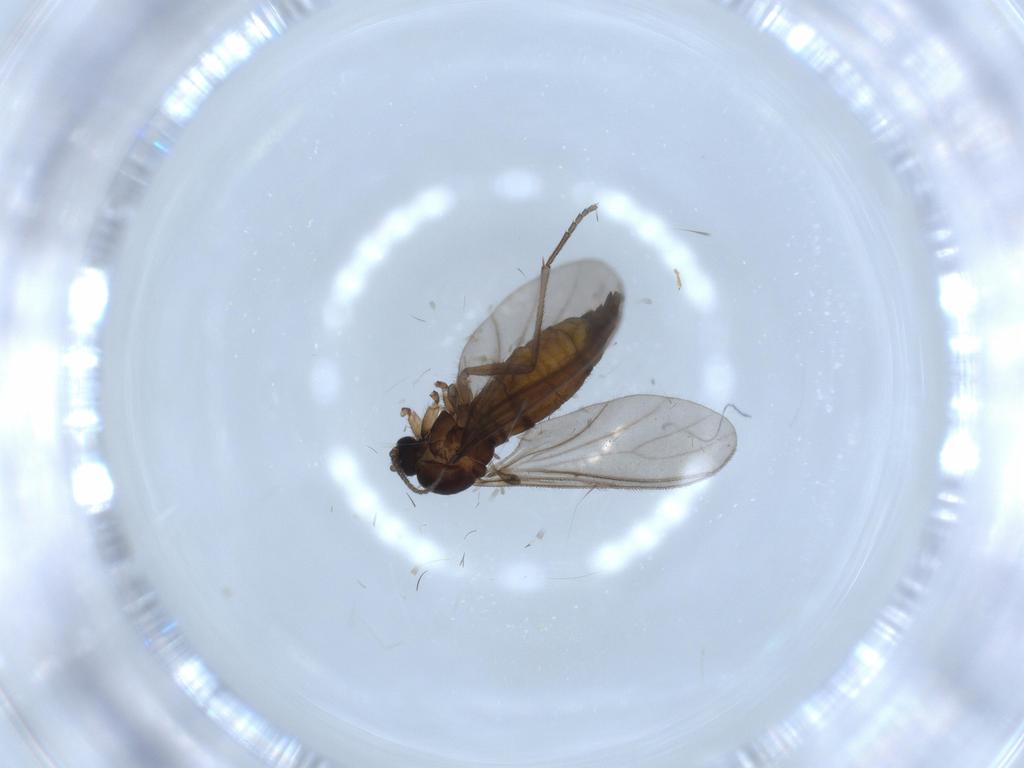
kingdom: Animalia
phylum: Arthropoda
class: Insecta
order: Diptera
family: Sciaridae
